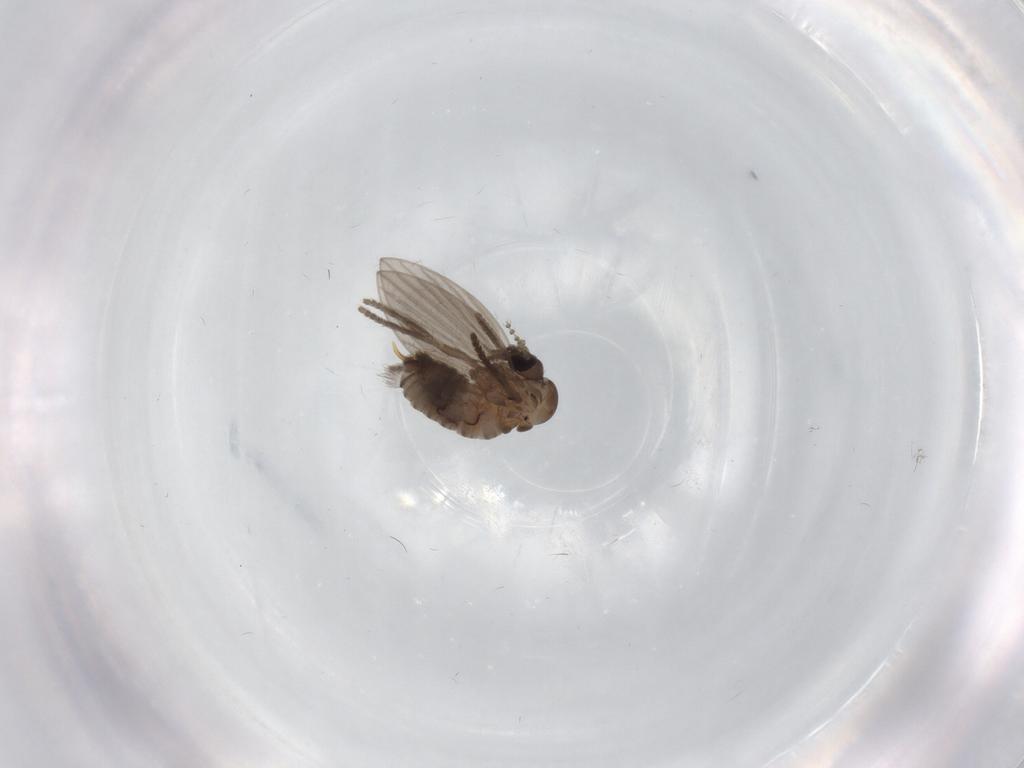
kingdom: Animalia
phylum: Arthropoda
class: Insecta
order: Diptera
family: Psychodidae
